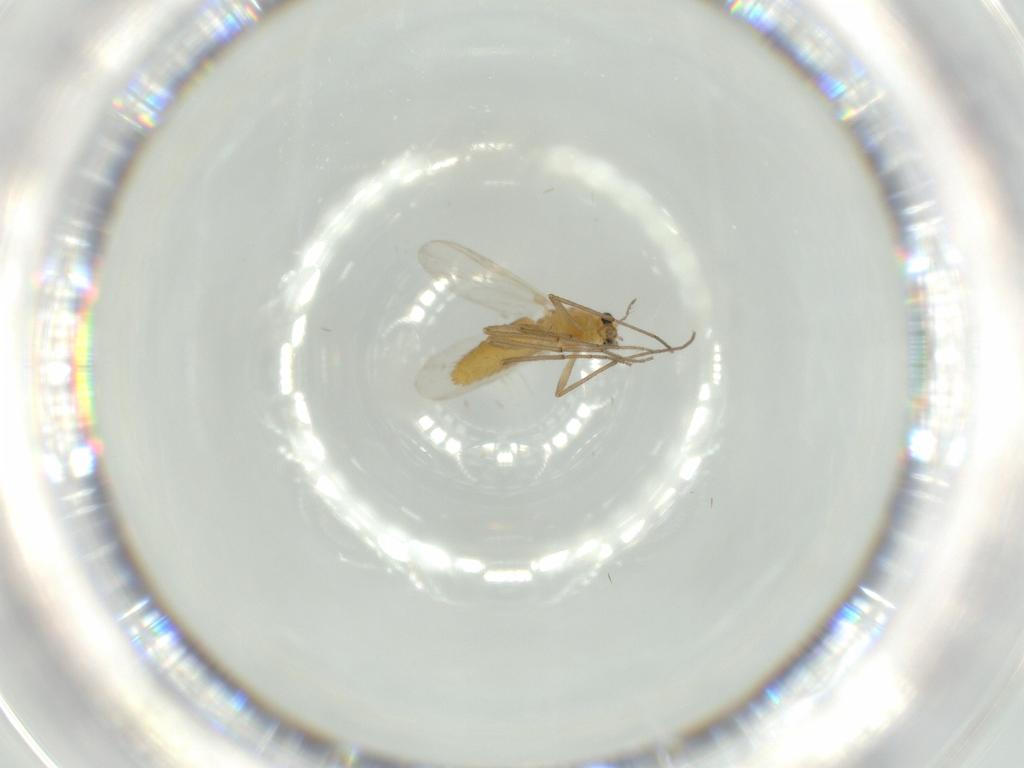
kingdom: Animalia
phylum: Arthropoda
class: Insecta
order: Diptera
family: Chironomidae
